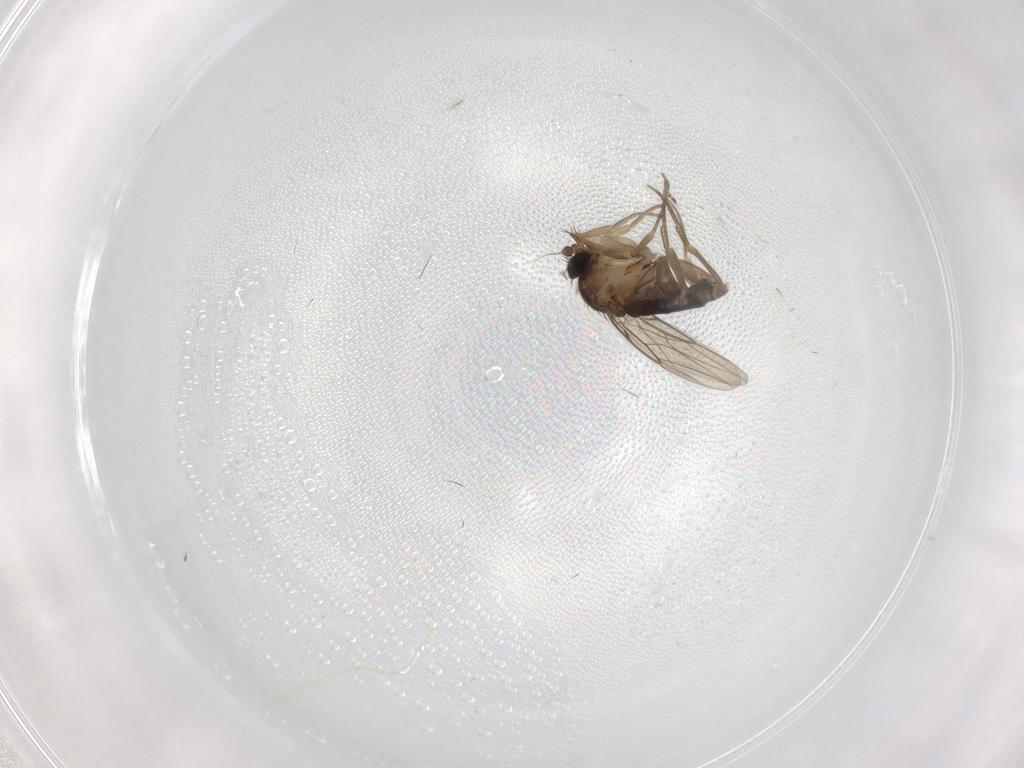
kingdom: Animalia
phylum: Arthropoda
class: Insecta
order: Diptera
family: Phoridae
